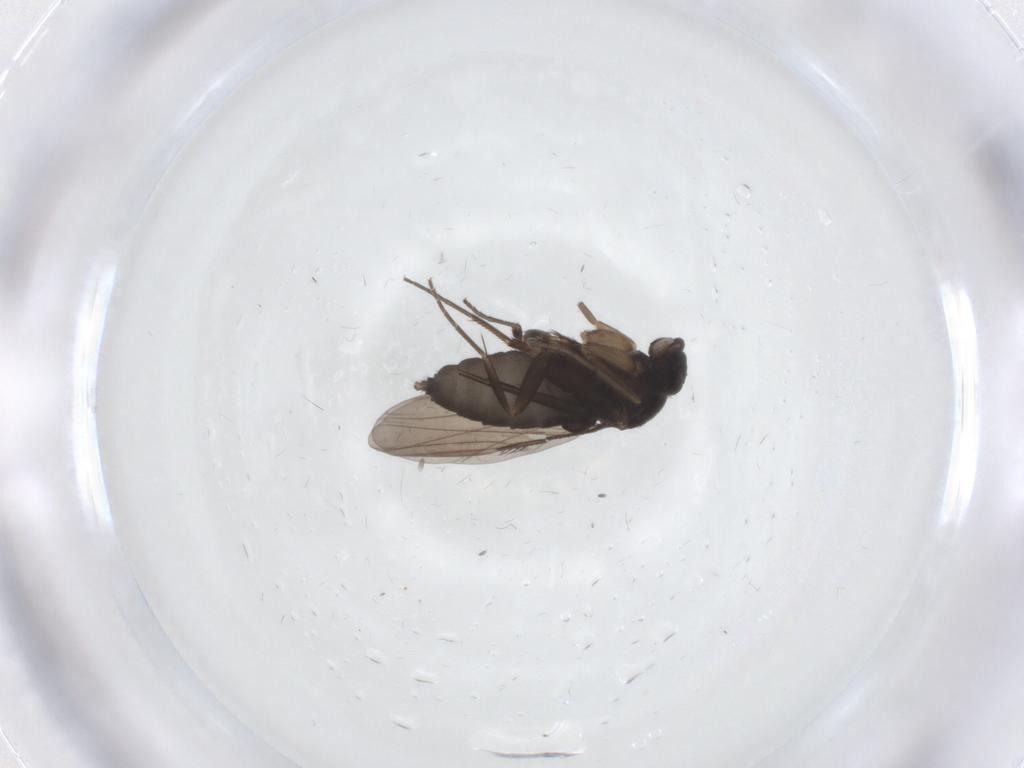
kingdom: Animalia
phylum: Arthropoda
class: Insecta
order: Diptera
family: Phoridae
